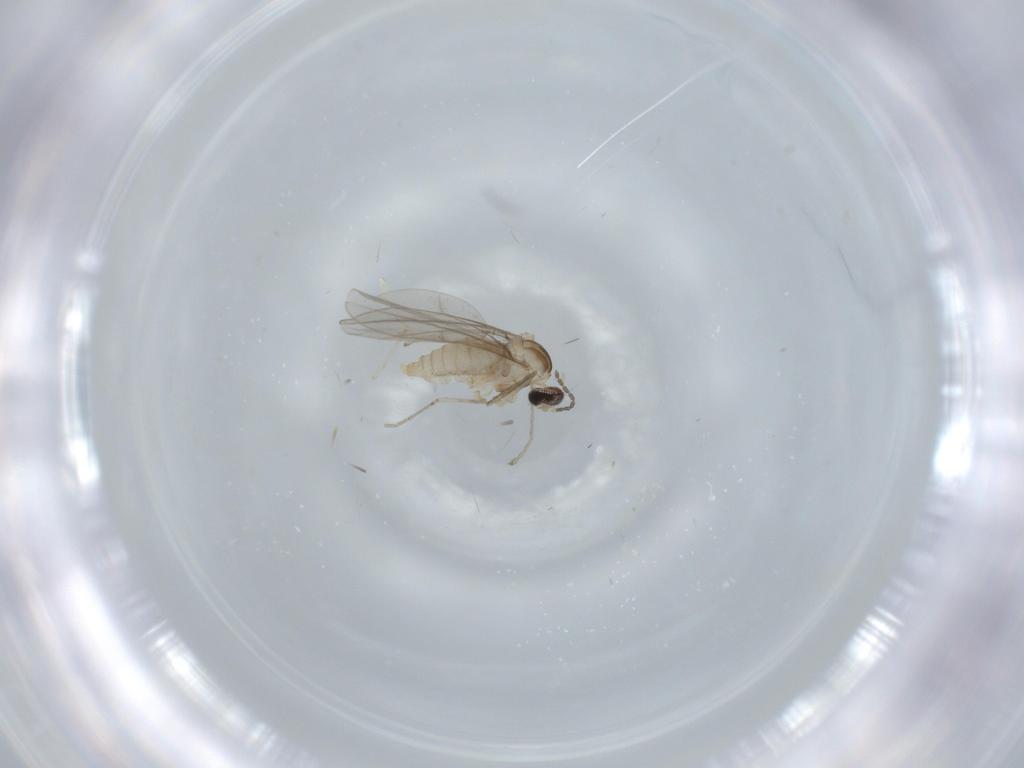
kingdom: Animalia
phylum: Arthropoda
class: Insecta
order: Diptera
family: Cecidomyiidae
